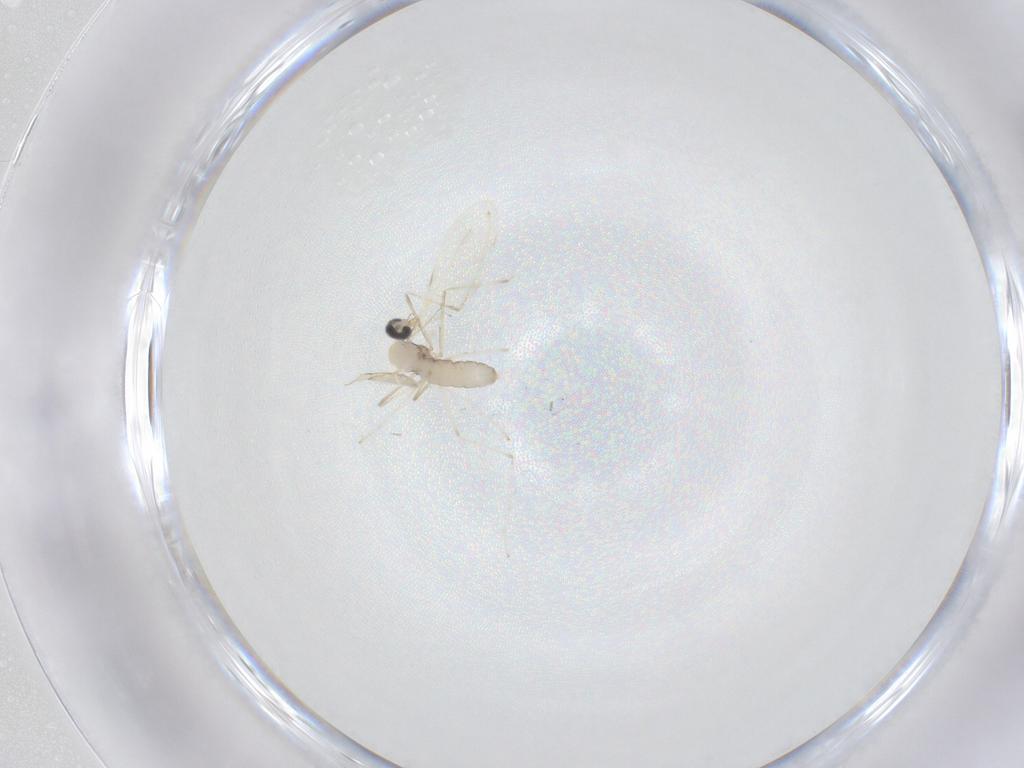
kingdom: Animalia
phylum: Arthropoda
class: Insecta
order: Diptera
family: Cecidomyiidae
